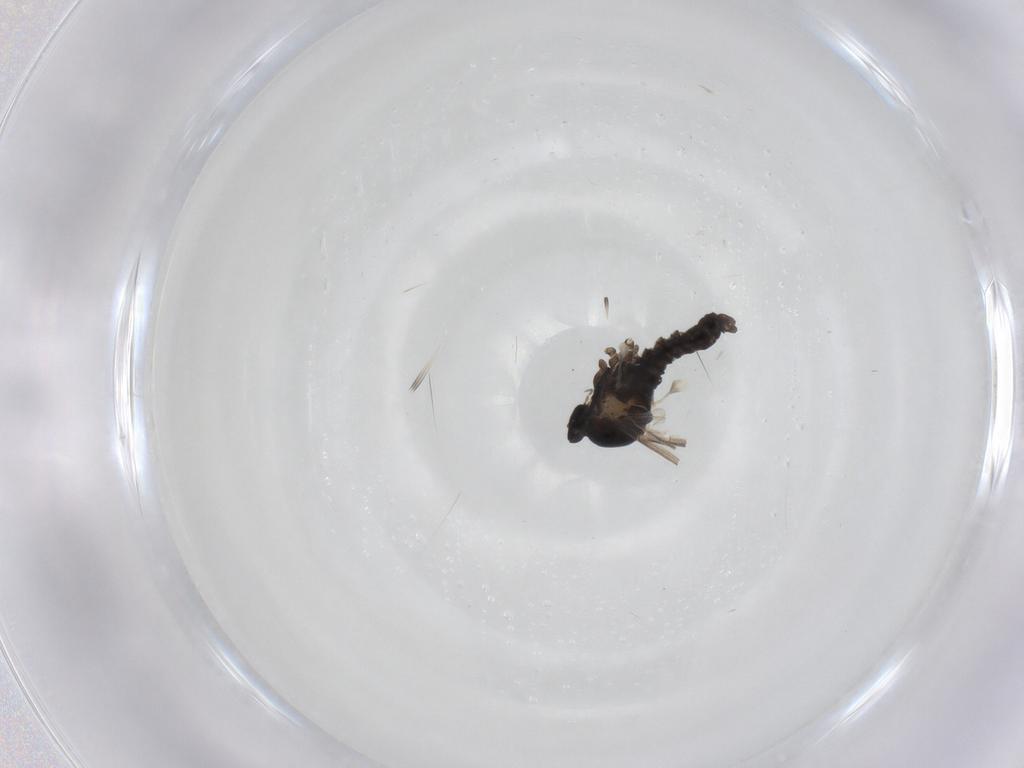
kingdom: Animalia
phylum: Arthropoda
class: Insecta
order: Diptera
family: Cecidomyiidae
